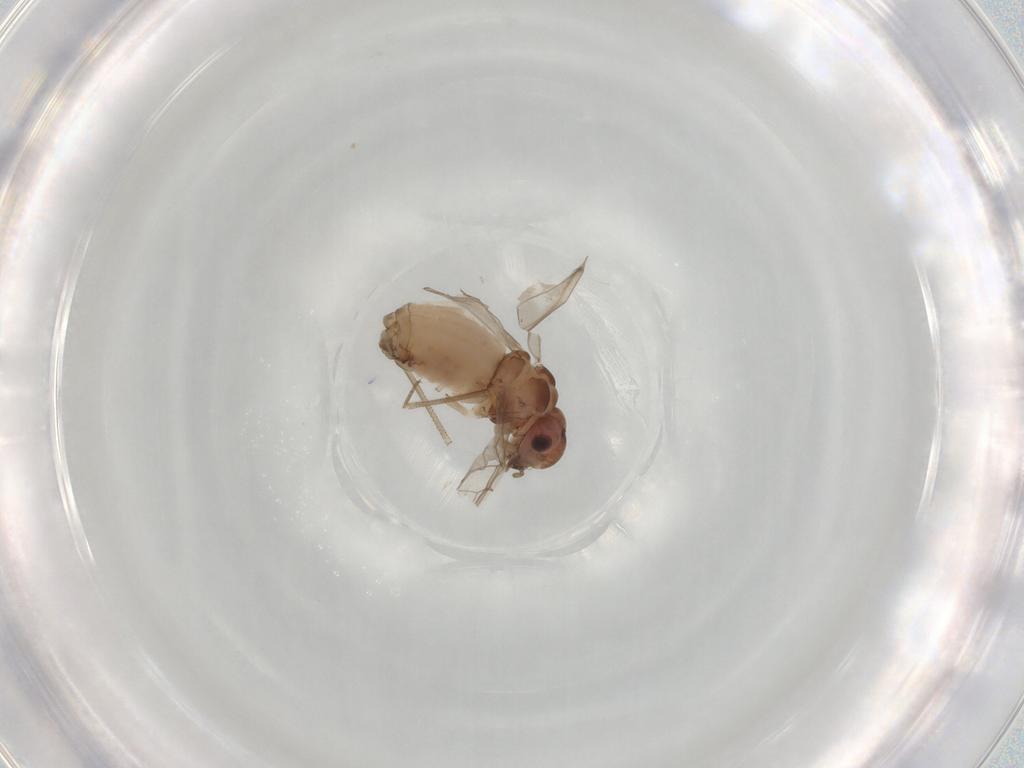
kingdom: Animalia
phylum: Arthropoda
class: Insecta
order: Psocodea
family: Peripsocidae
